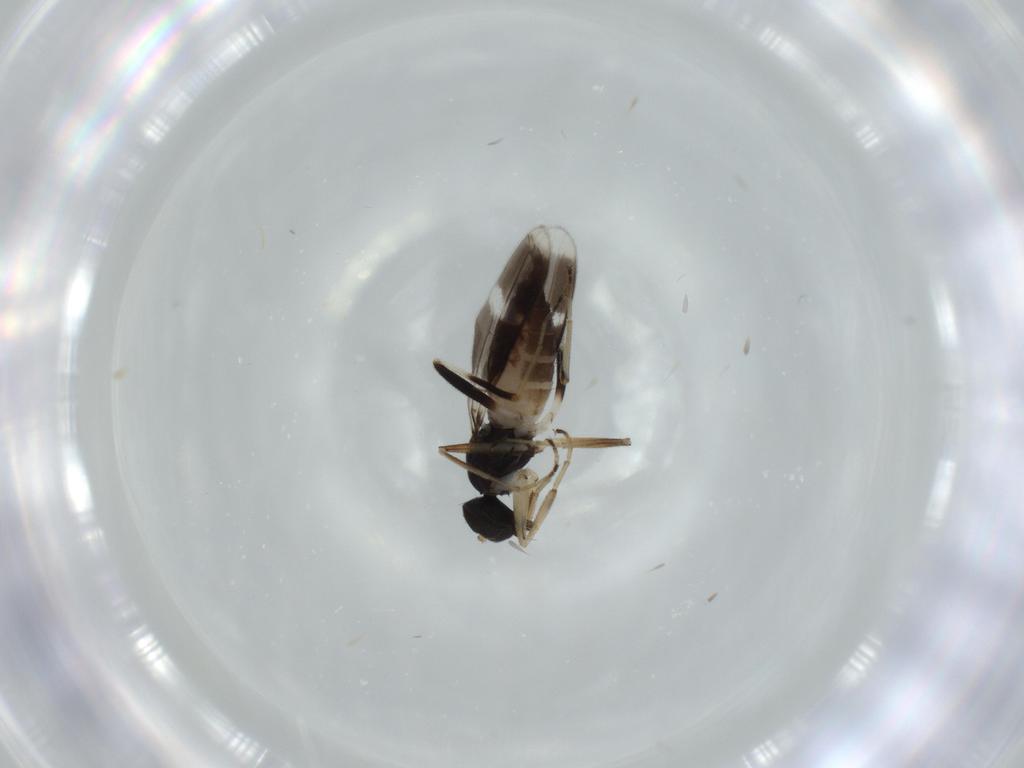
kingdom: Animalia
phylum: Arthropoda
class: Insecta
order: Diptera
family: Hybotidae
